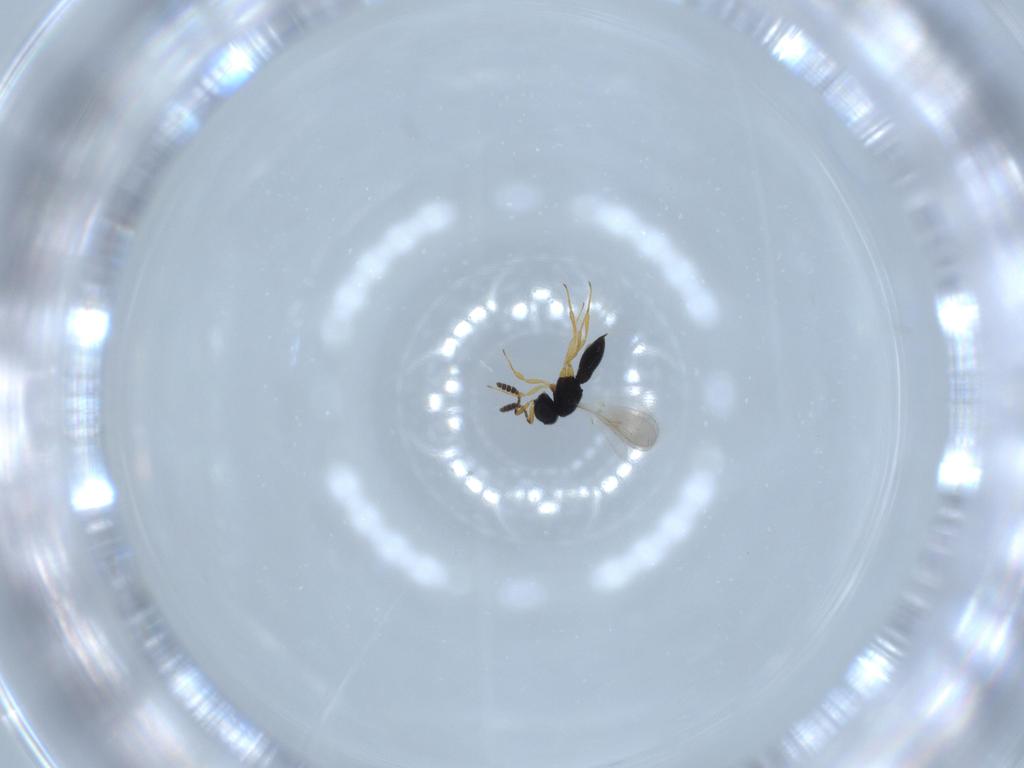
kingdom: Animalia
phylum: Arthropoda
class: Insecta
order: Hymenoptera
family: Scelionidae
